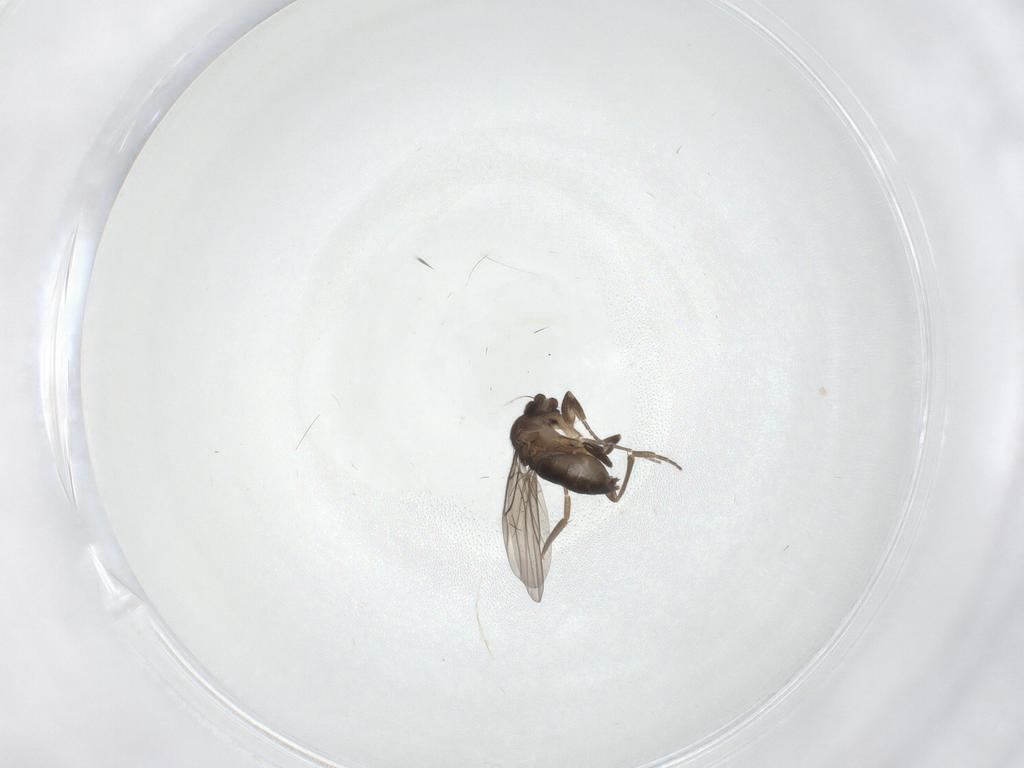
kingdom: Animalia
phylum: Arthropoda
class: Insecta
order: Diptera
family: Phoridae
